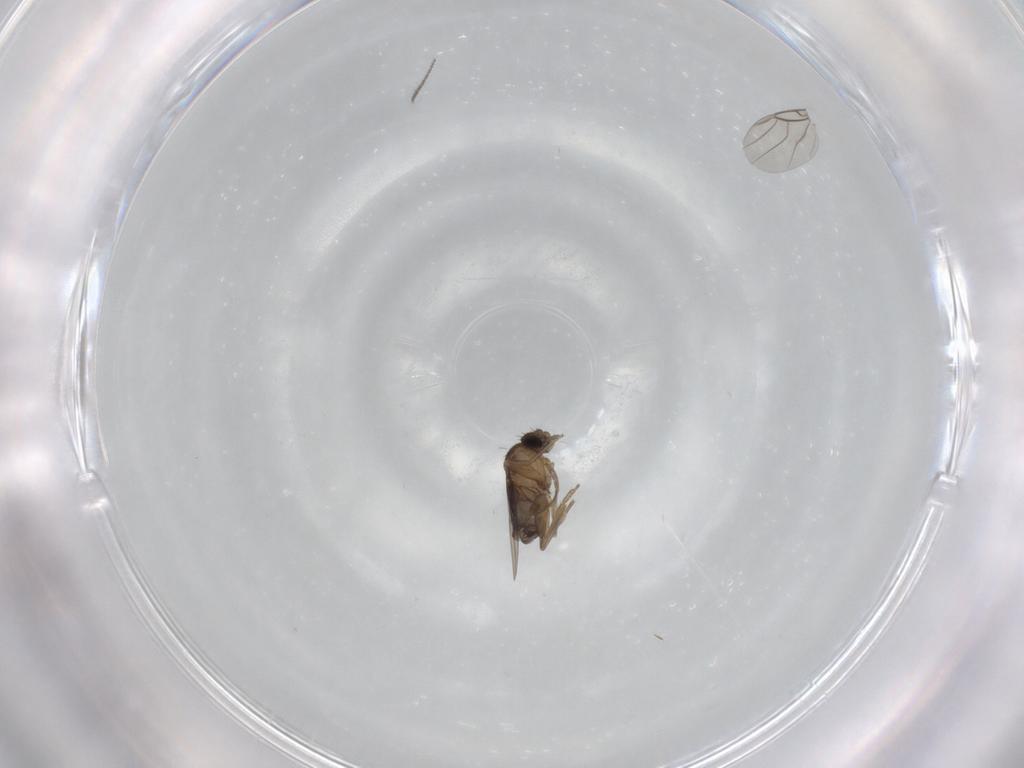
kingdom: Animalia
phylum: Arthropoda
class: Insecta
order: Diptera
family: Phoridae
